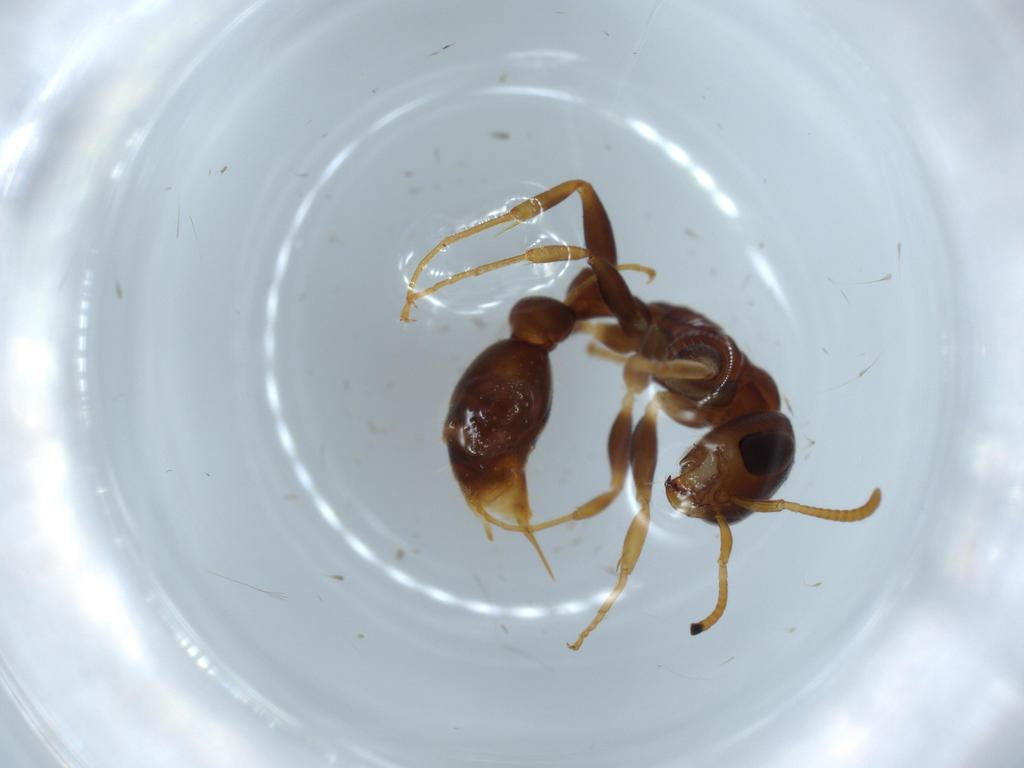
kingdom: Animalia
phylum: Arthropoda
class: Insecta
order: Hymenoptera
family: Formicidae
